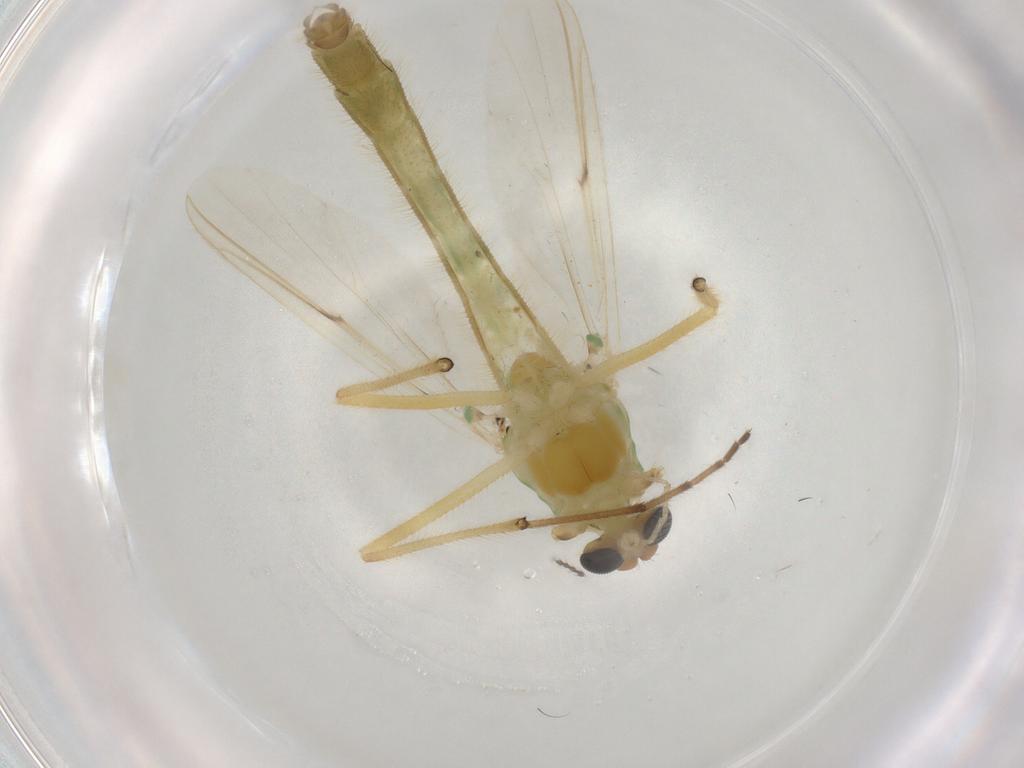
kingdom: Animalia
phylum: Arthropoda
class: Insecta
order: Diptera
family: Chironomidae
